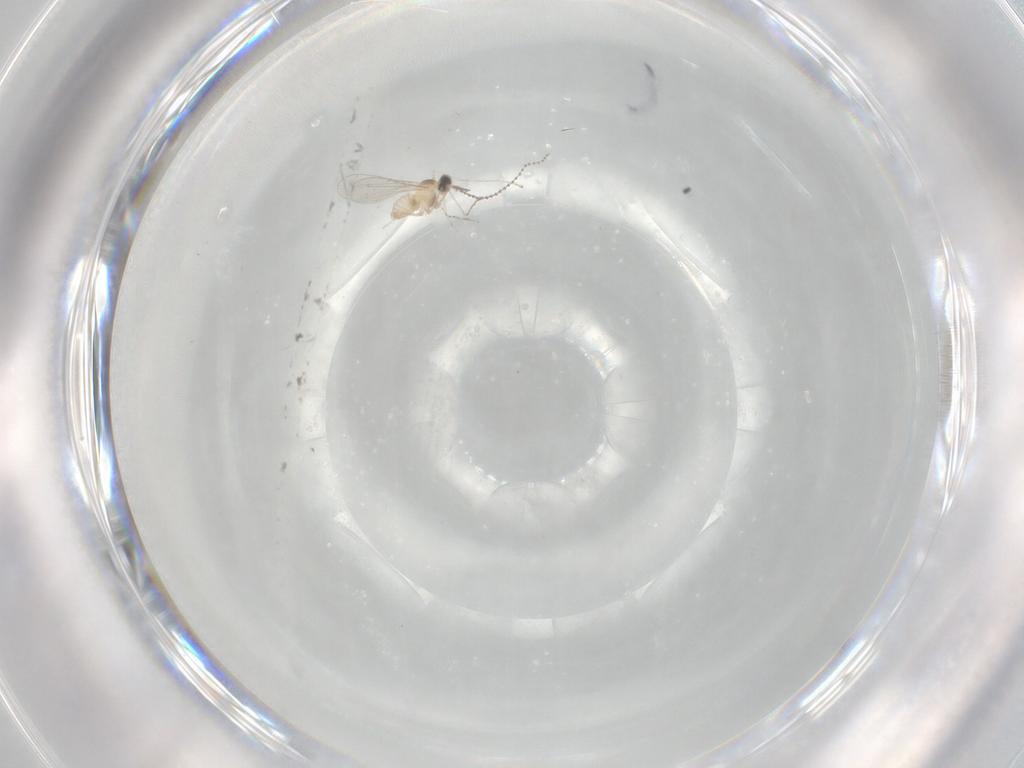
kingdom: Animalia
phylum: Arthropoda
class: Insecta
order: Diptera
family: Cecidomyiidae
